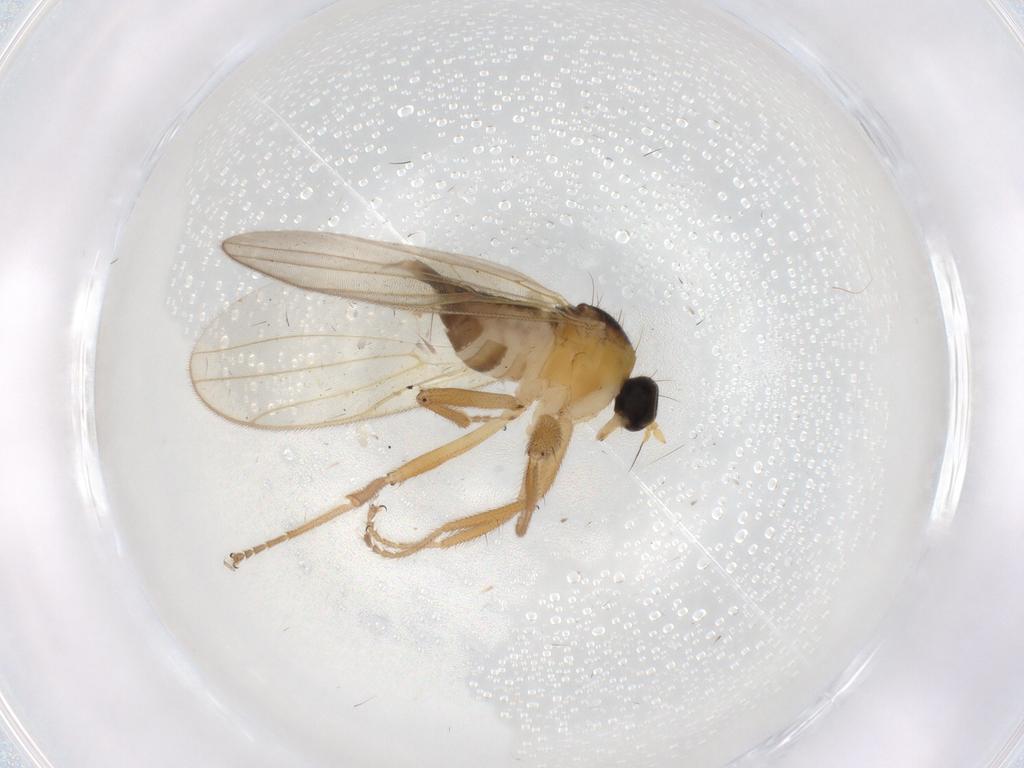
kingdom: Animalia
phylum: Arthropoda
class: Insecta
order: Diptera
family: Hybotidae
